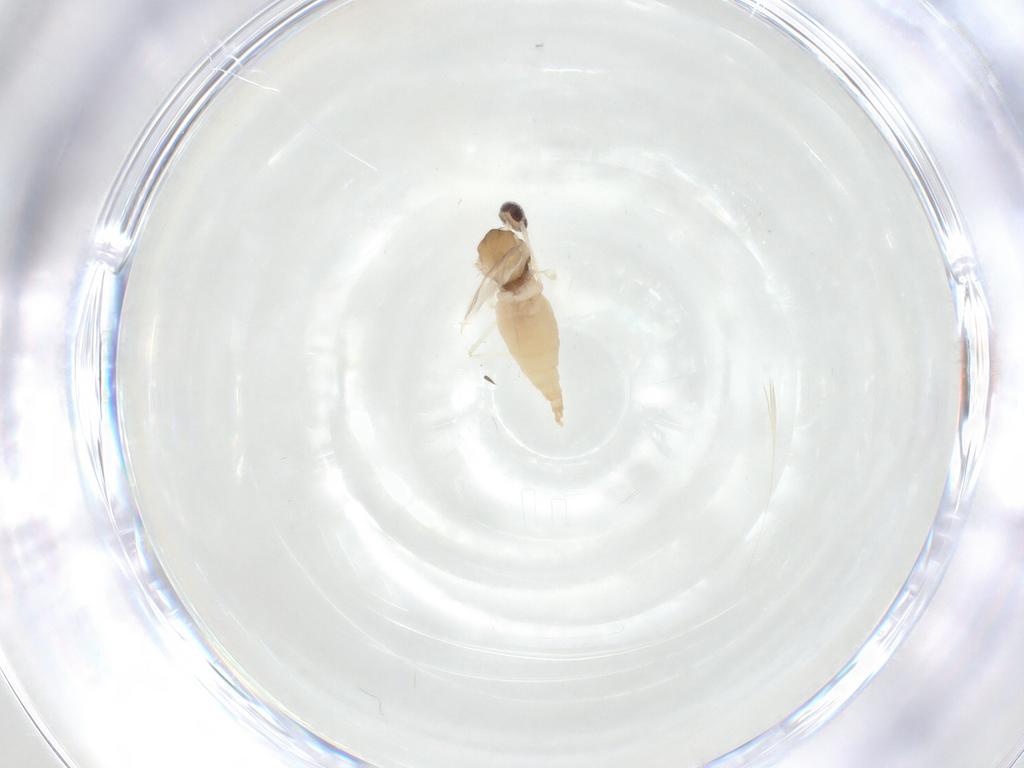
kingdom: Animalia
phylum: Arthropoda
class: Insecta
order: Diptera
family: Cecidomyiidae
